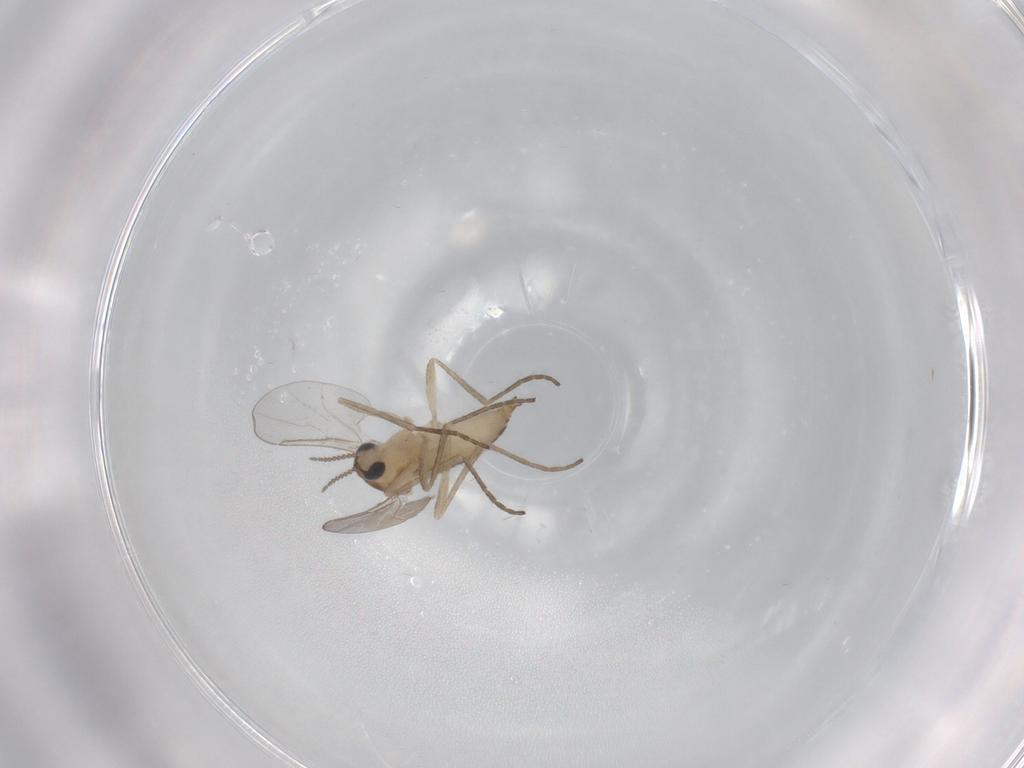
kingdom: Animalia
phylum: Arthropoda
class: Insecta
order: Diptera
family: Cecidomyiidae
